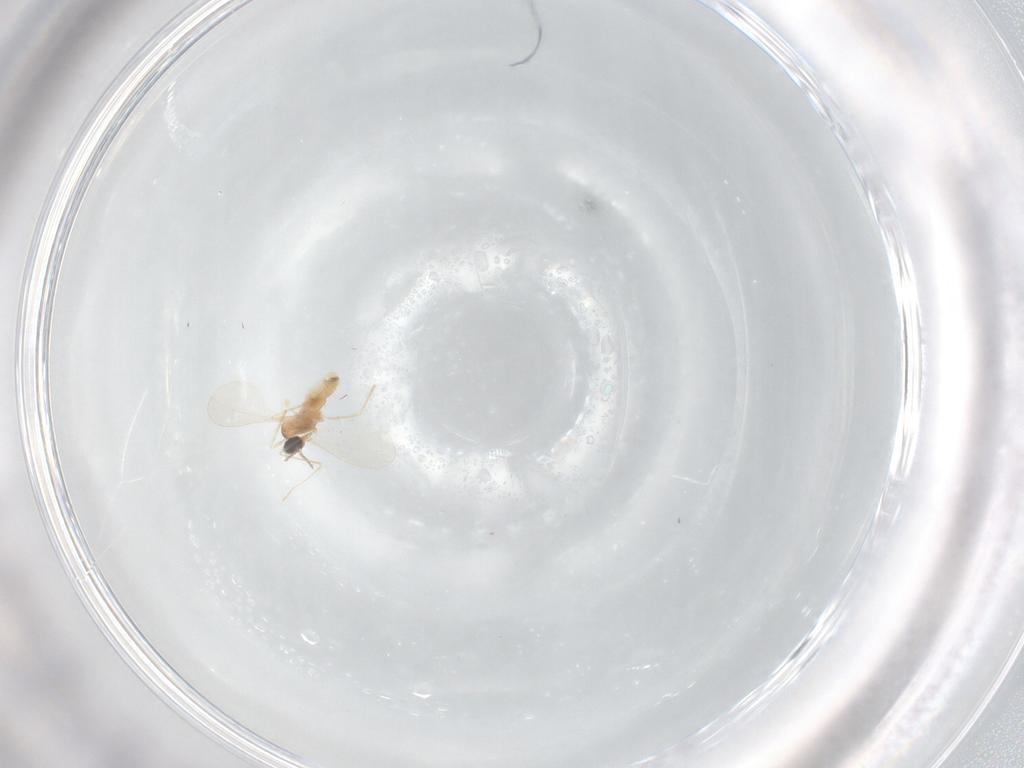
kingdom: Animalia
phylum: Arthropoda
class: Insecta
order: Diptera
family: Cecidomyiidae
